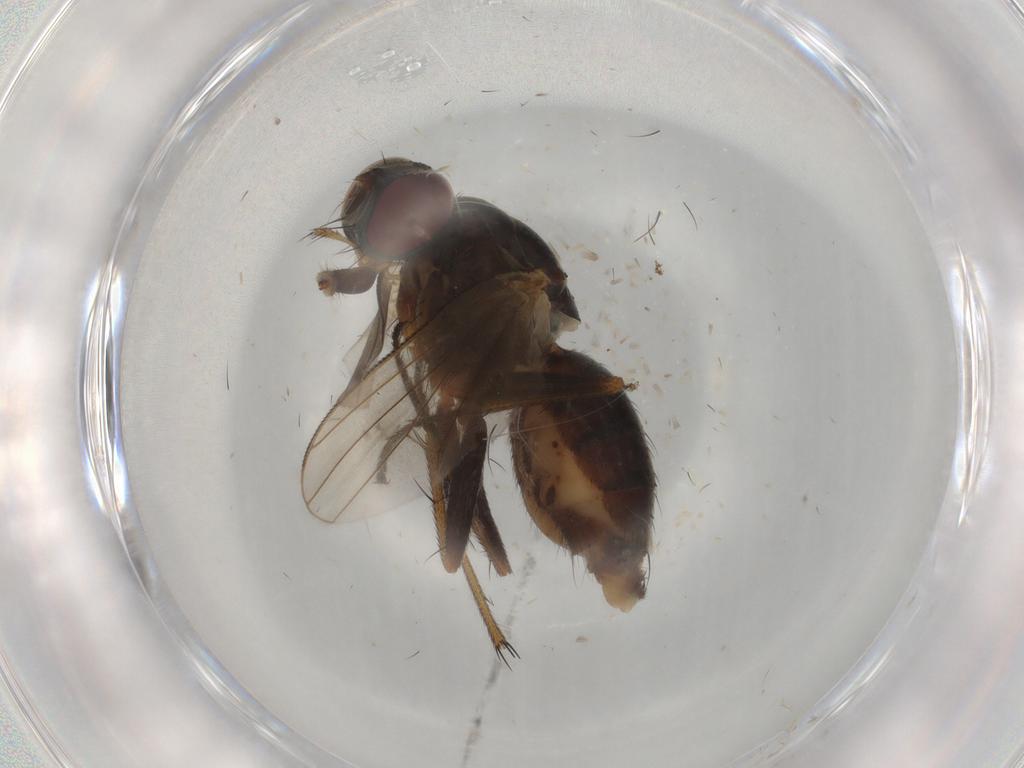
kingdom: Animalia
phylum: Arthropoda
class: Insecta
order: Diptera
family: Muscidae
